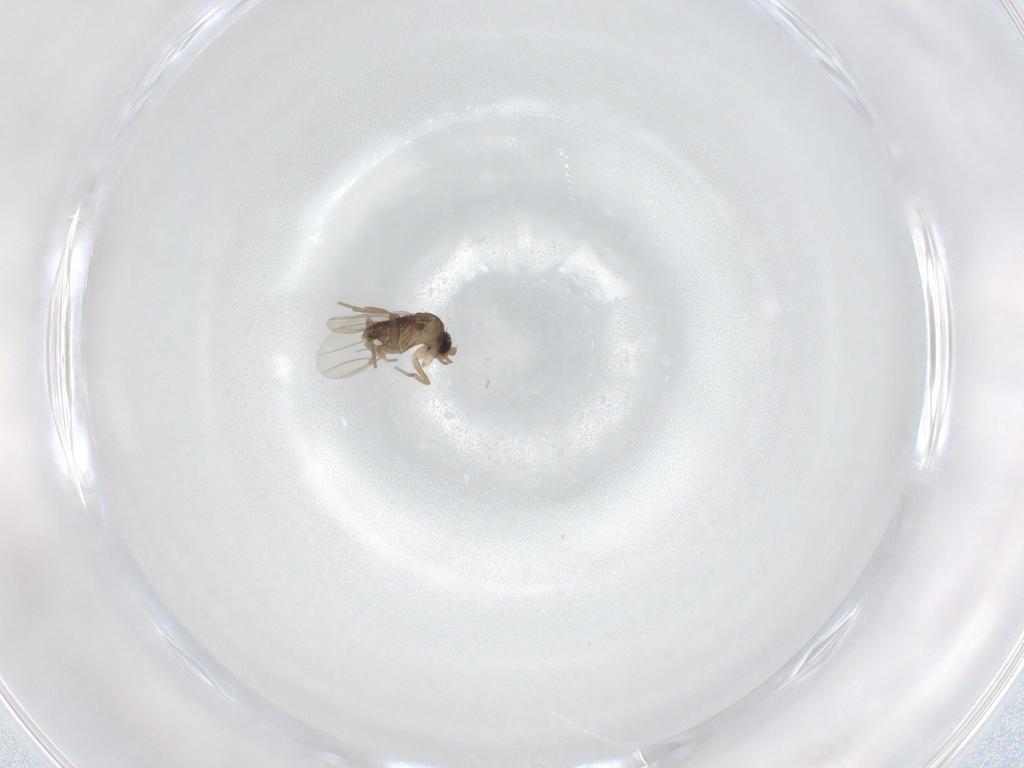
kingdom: Animalia
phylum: Arthropoda
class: Insecta
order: Diptera
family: Phoridae
